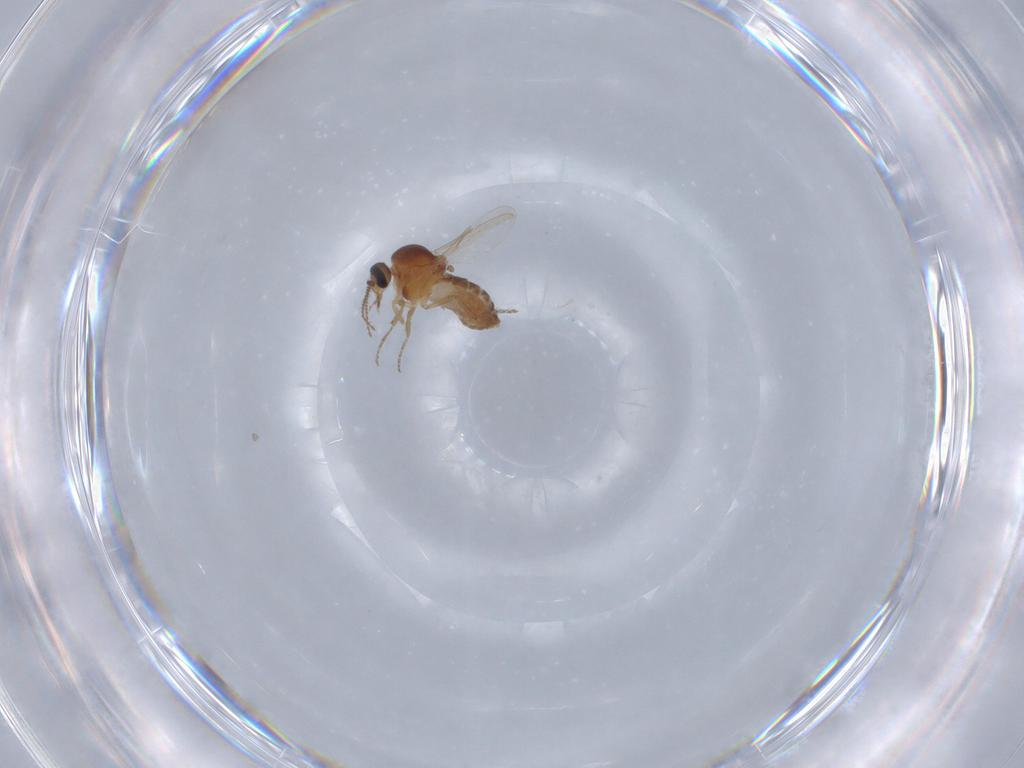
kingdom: Animalia
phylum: Arthropoda
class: Insecta
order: Diptera
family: Ceratopogonidae
